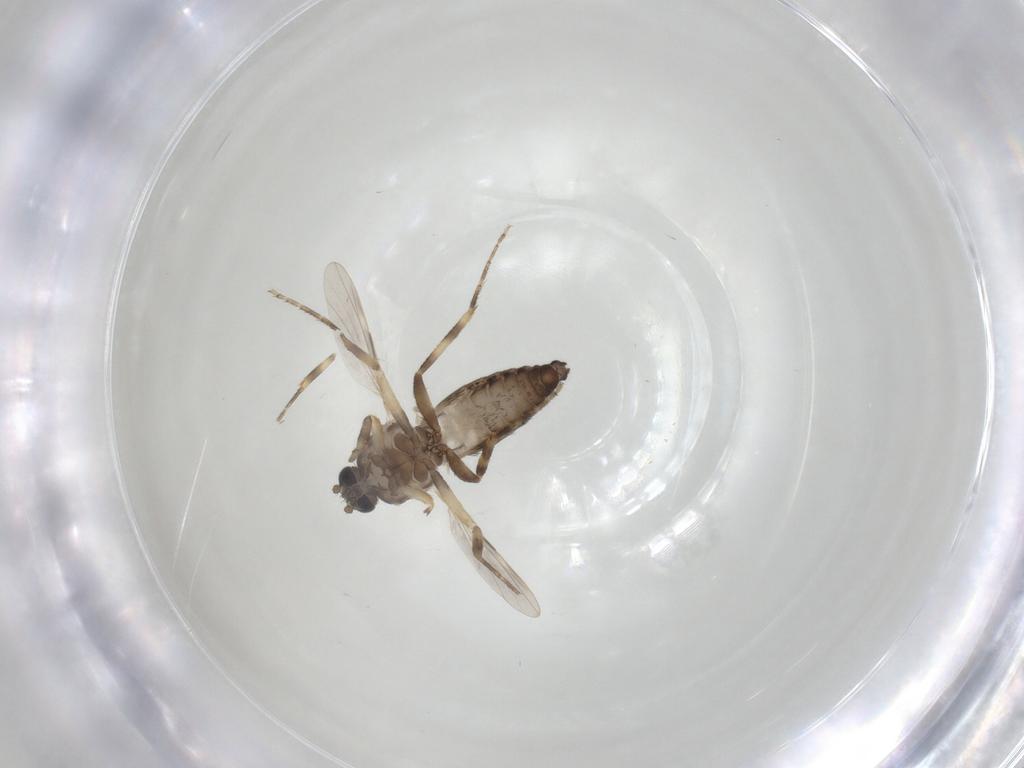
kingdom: Animalia
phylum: Arthropoda
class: Insecta
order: Diptera
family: Ceratopogonidae
